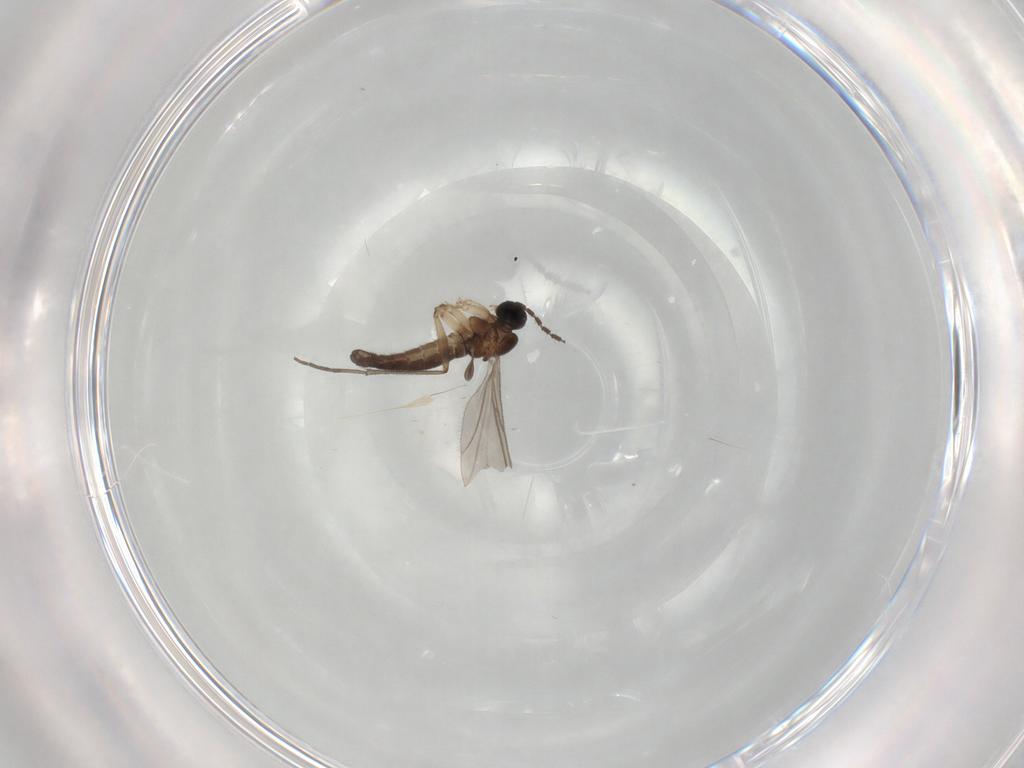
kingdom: Animalia
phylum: Arthropoda
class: Insecta
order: Diptera
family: Sciaridae
